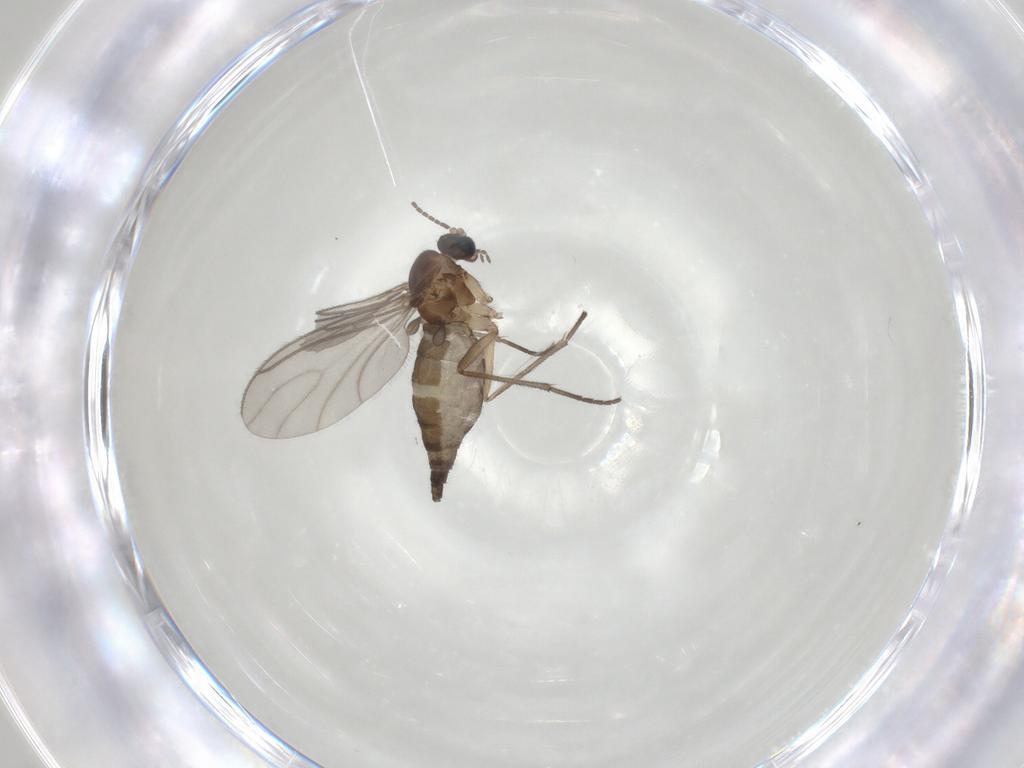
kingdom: Animalia
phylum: Arthropoda
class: Insecta
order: Diptera
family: Sciaridae
